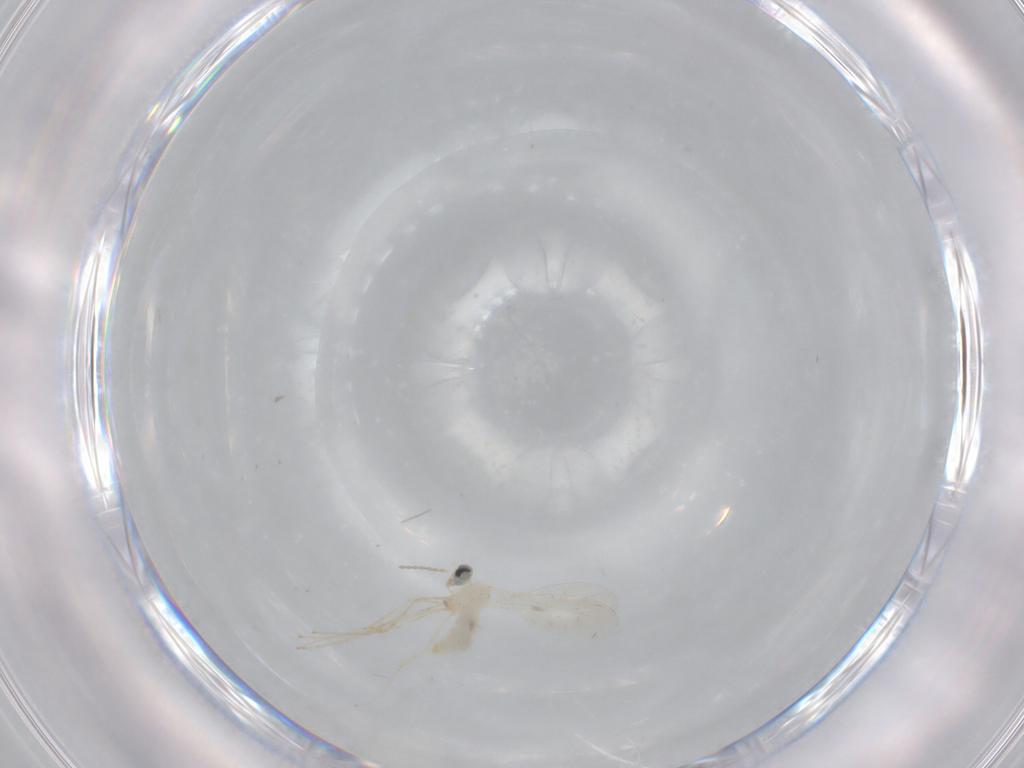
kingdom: Animalia
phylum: Arthropoda
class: Insecta
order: Diptera
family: Cecidomyiidae
